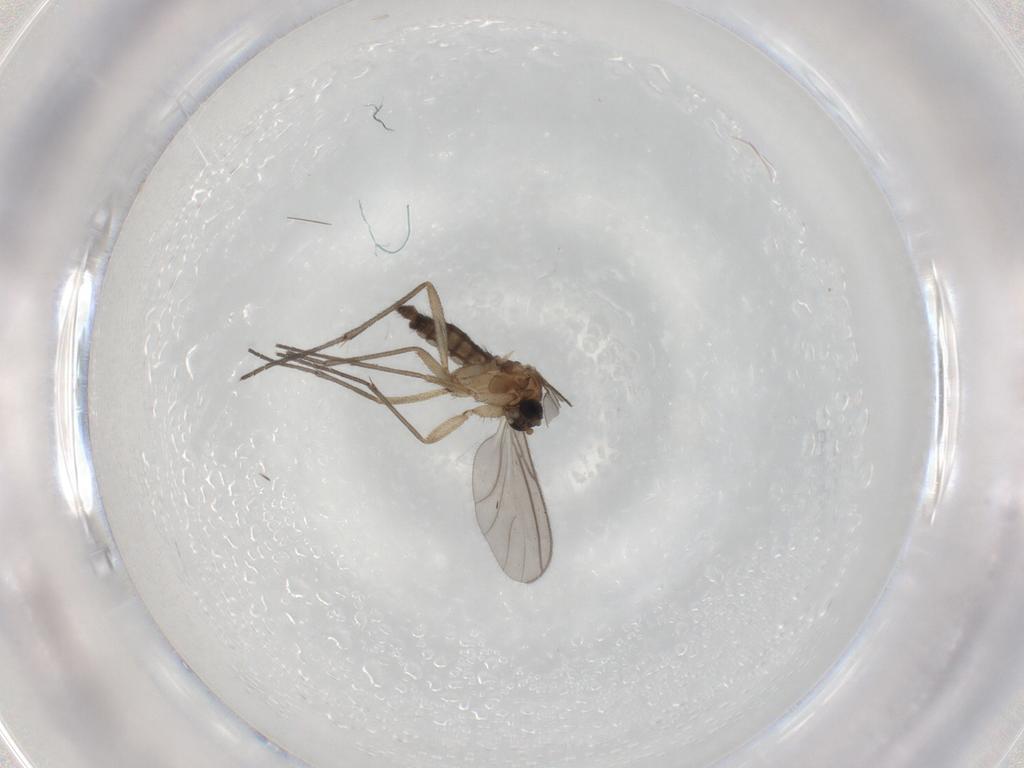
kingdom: Animalia
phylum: Arthropoda
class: Insecta
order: Diptera
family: Sciaridae
